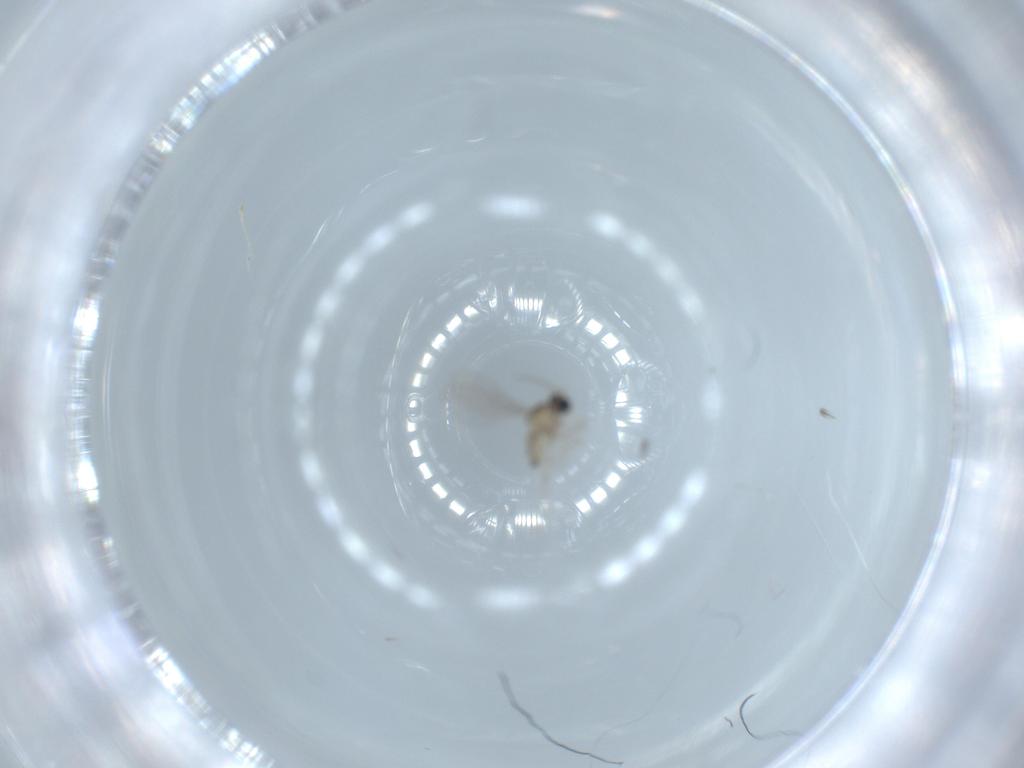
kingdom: Animalia
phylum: Arthropoda
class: Insecta
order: Diptera
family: Cecidomyiidae
